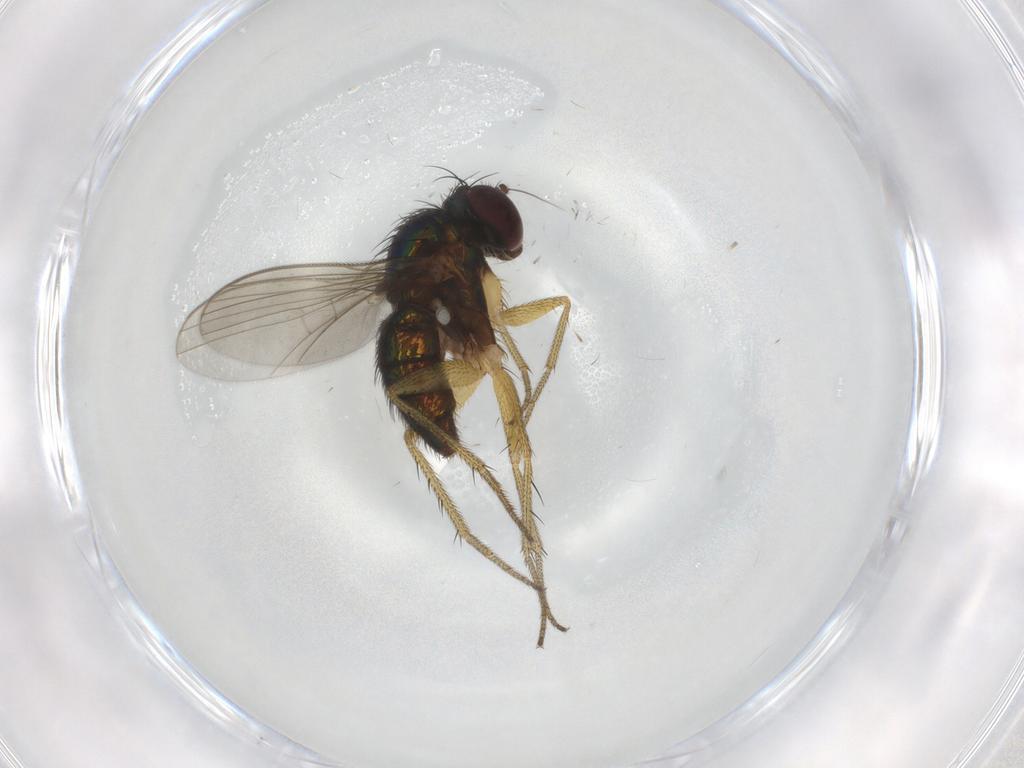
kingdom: Animalia
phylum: Arthropoda
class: Insecta
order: Diptera
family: Dolichopodidae
